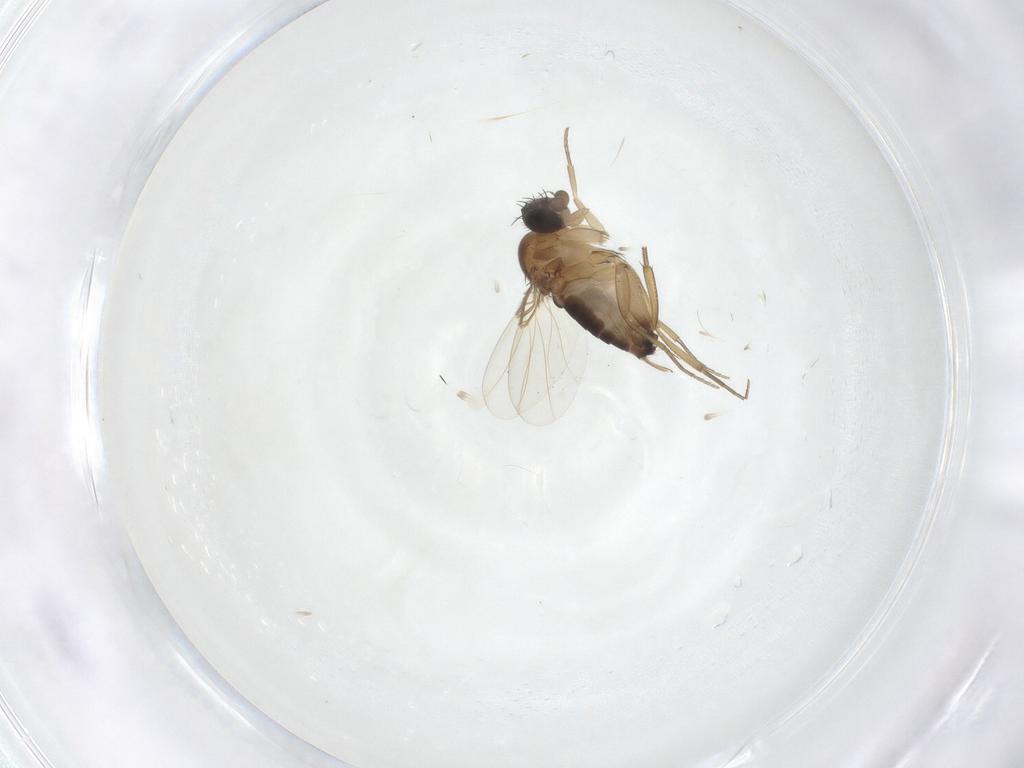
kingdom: Animalia
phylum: Arthropoda
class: Insecta
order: Diptera
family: Phoridae
